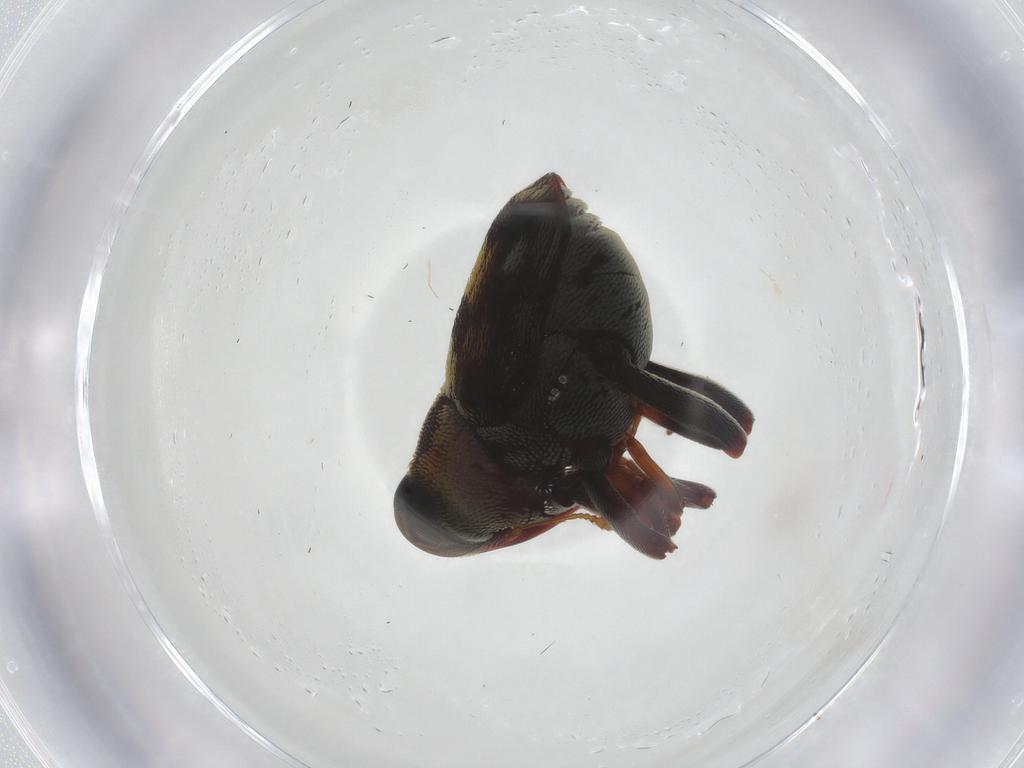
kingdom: Animalia
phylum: Arthropoda
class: Insecta
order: Coleoptera
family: Curculionidae
